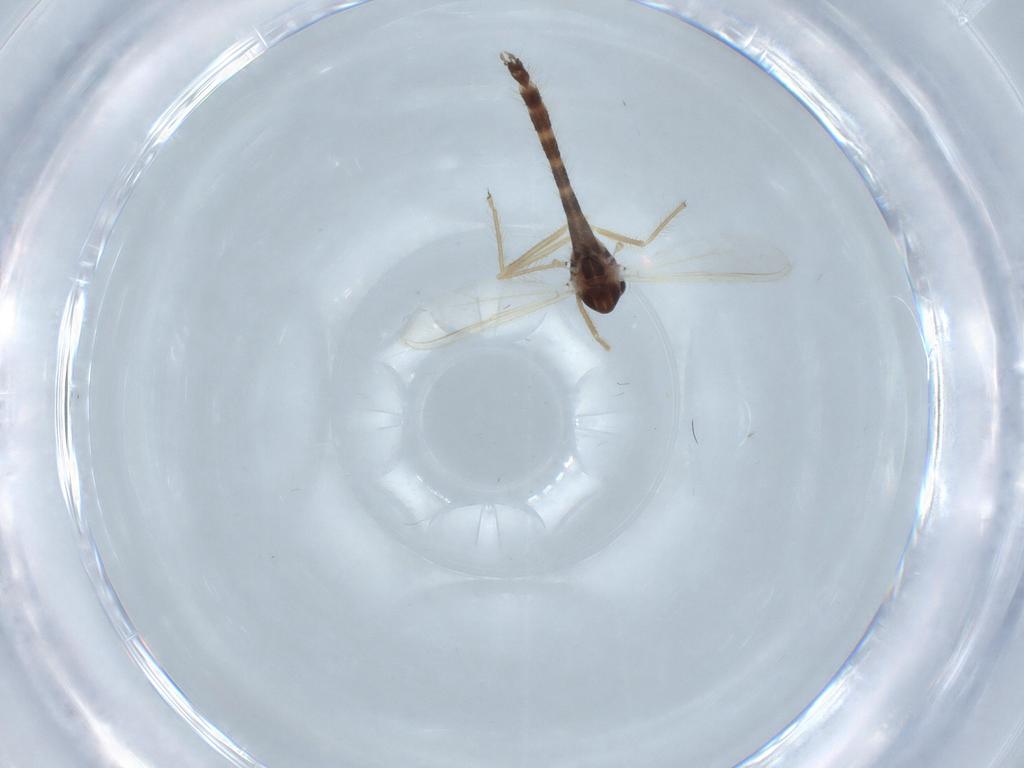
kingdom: Animalia
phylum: Arthropoda
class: Insecta
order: Diptera
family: Chironomidae
